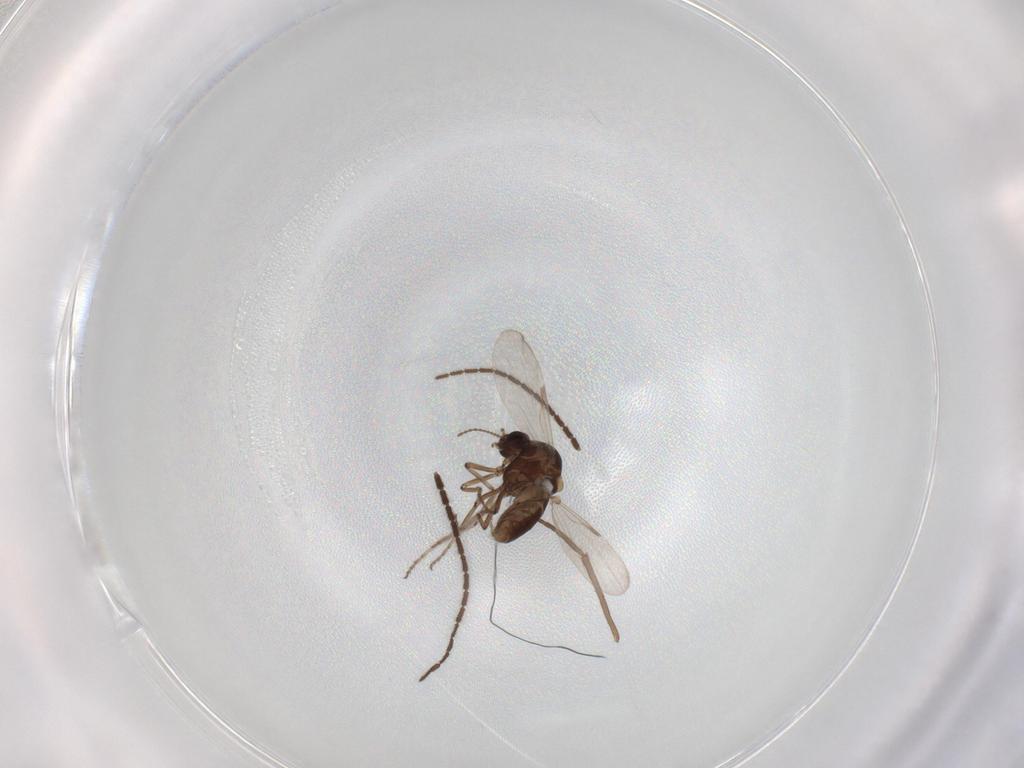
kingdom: Animalia
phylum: Arthropoda
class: Insecta
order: Diptera
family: Chironomidae
